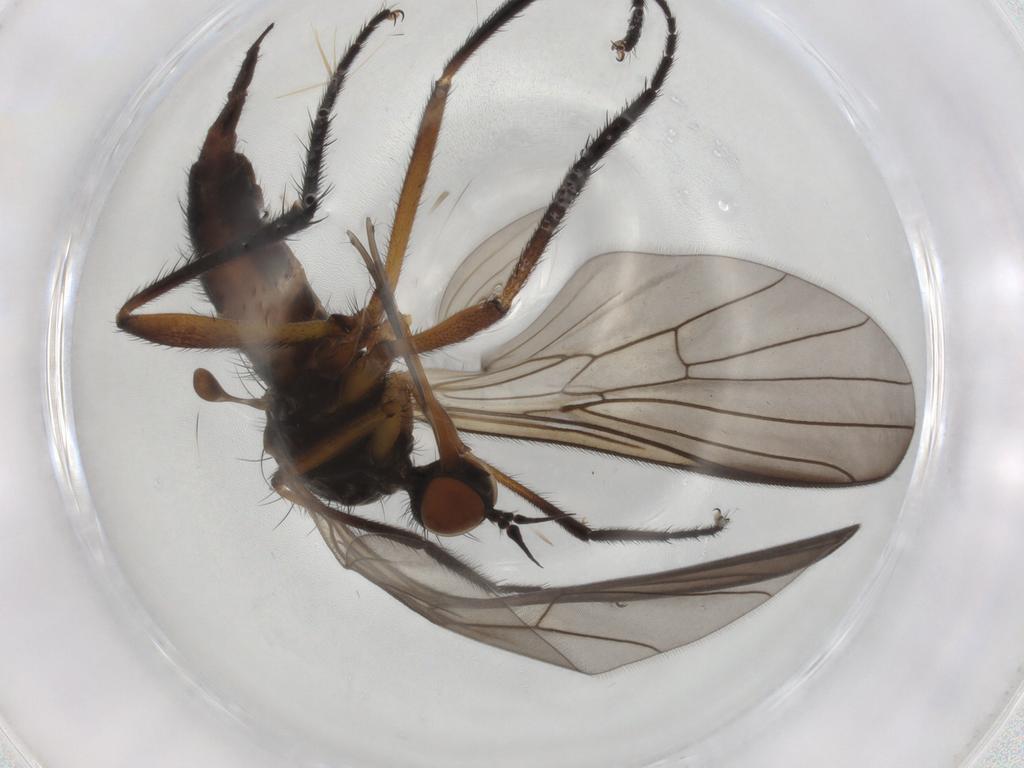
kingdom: Animalia
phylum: Arthropoda
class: Insecta
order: Diptera
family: Empididae
